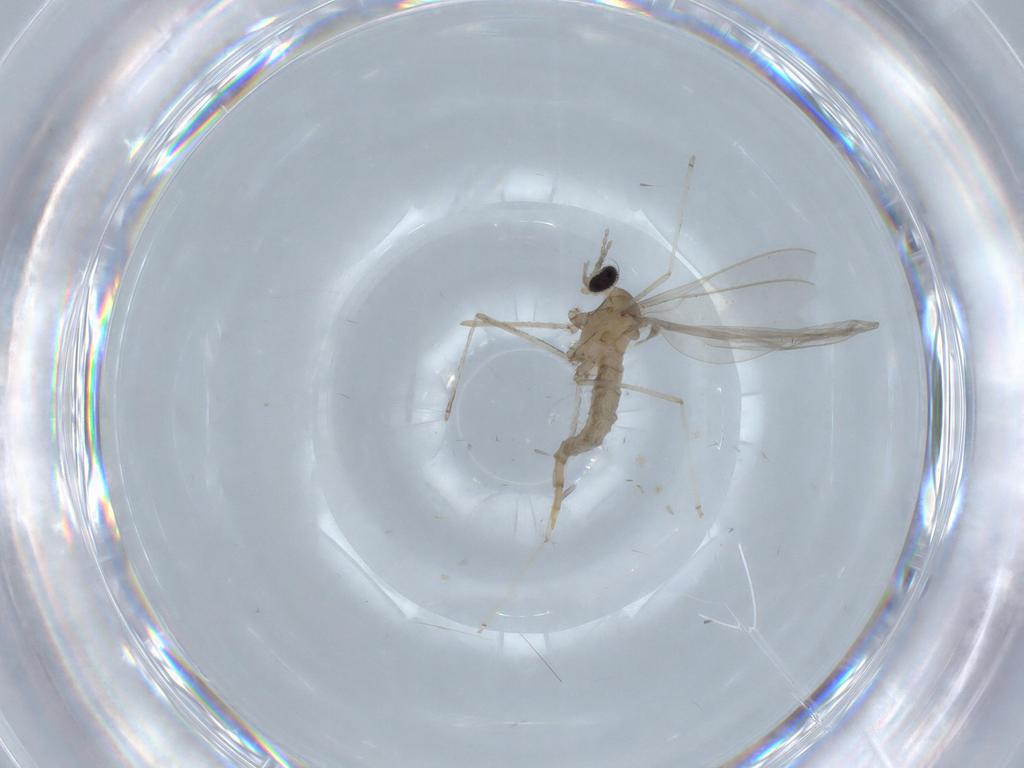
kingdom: Animalia
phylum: Arthropoda
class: Insecta
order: Diptera
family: Cecidomyiidae
